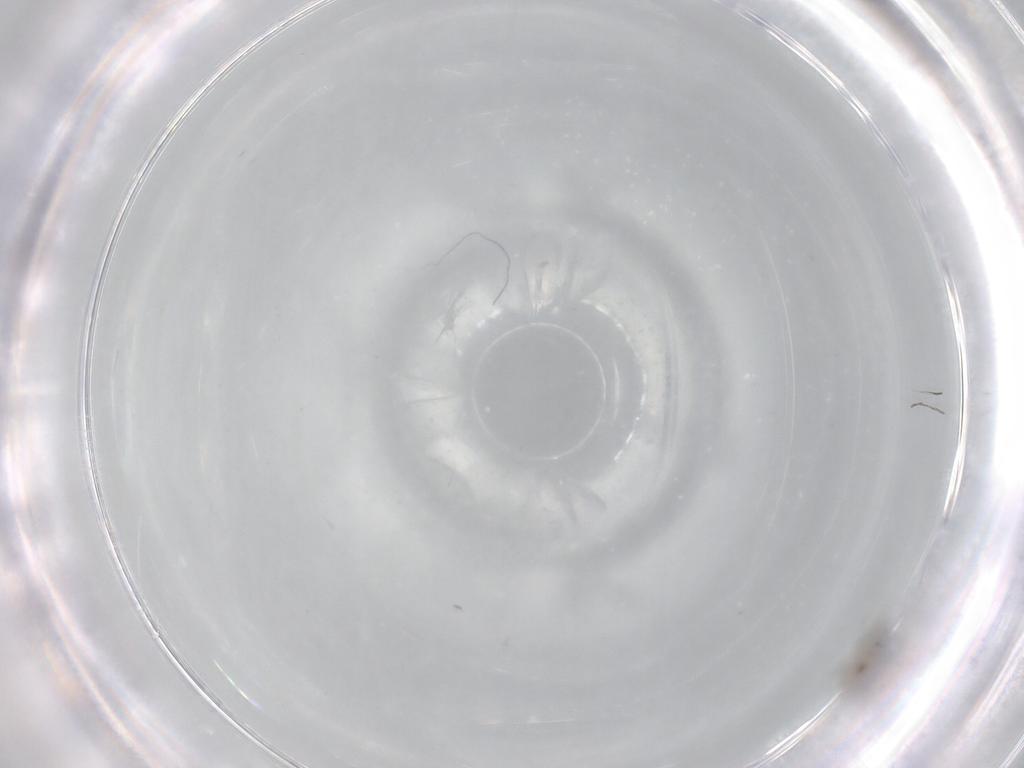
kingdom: Animalia
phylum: Arthropoda
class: Insecta
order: Diptera
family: Cecidomyiidae
